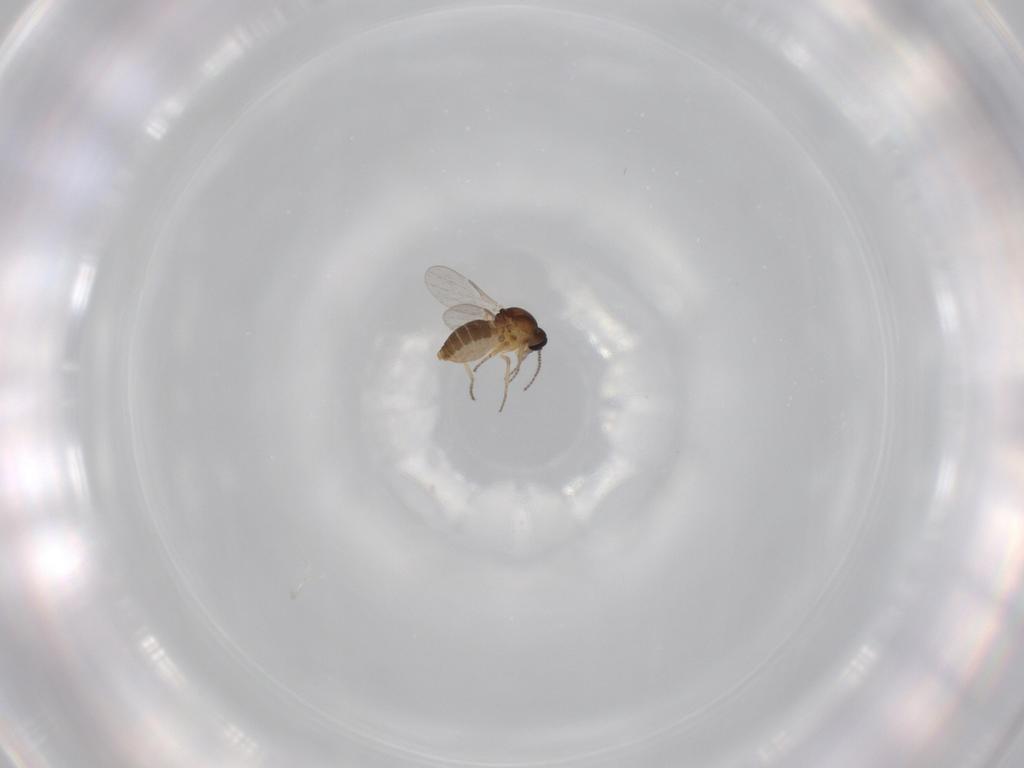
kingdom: Animalia
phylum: Arthropoda
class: Insecta
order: Diptera
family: Ceratopogonidae
